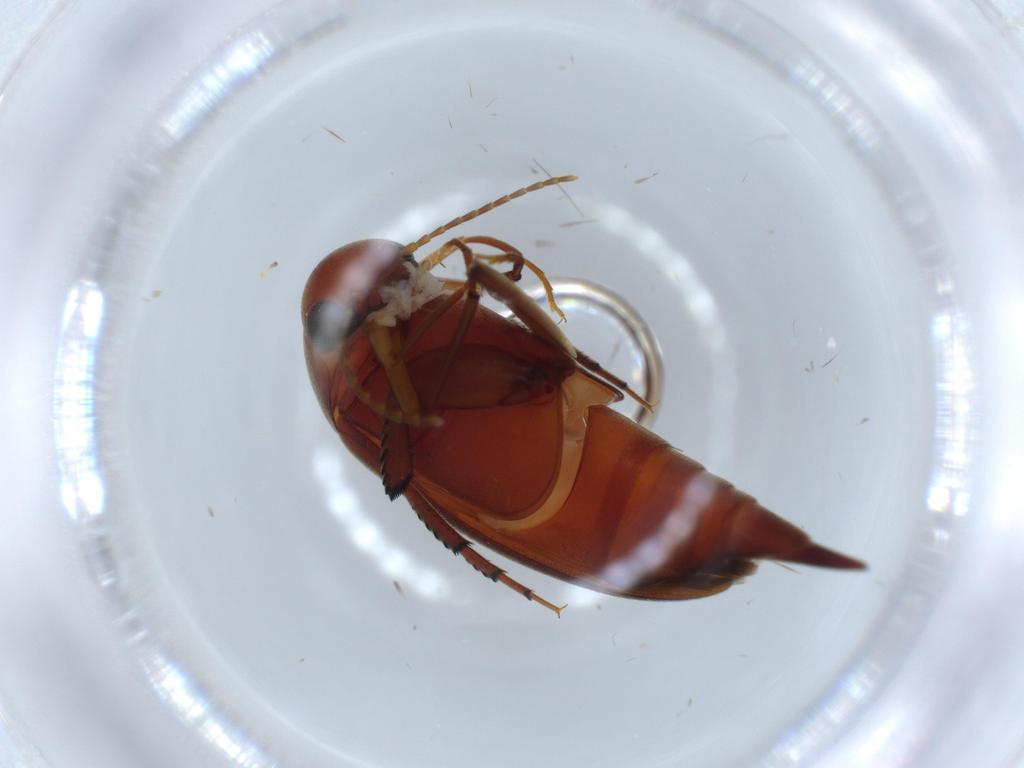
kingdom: Animalia
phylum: Arthropoda
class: Insecta
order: Coleoptera
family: Mordellidae
